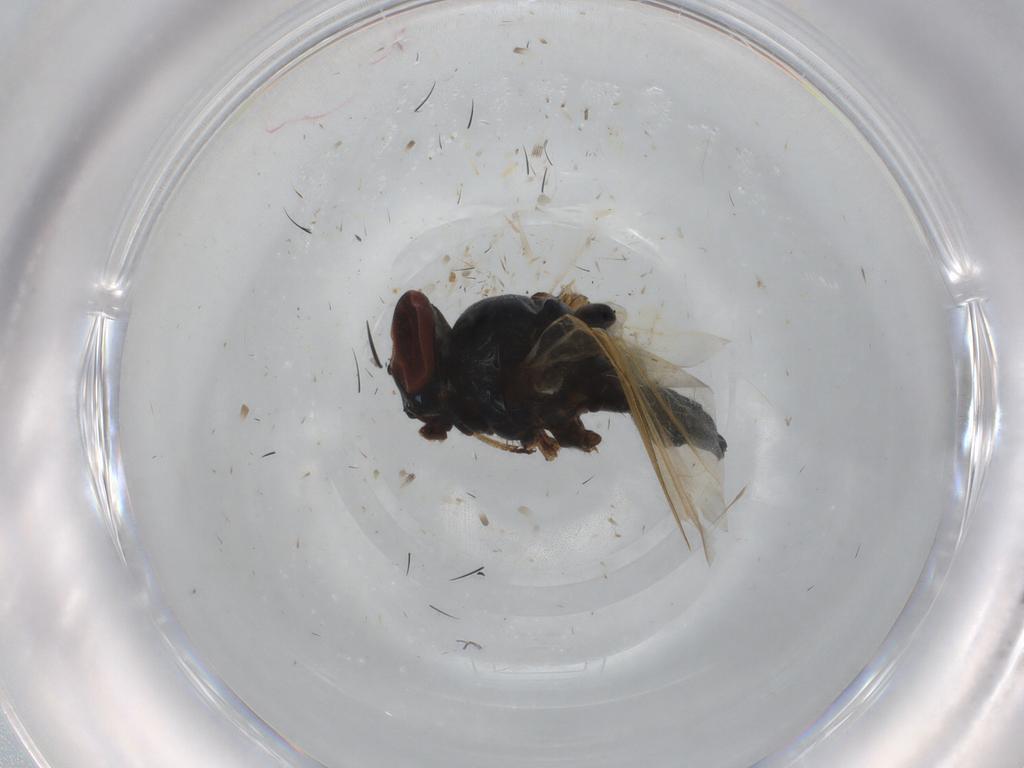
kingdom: Animalia
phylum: Arthropoda
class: Insecta
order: Diptera
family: Cecidomyiidae
